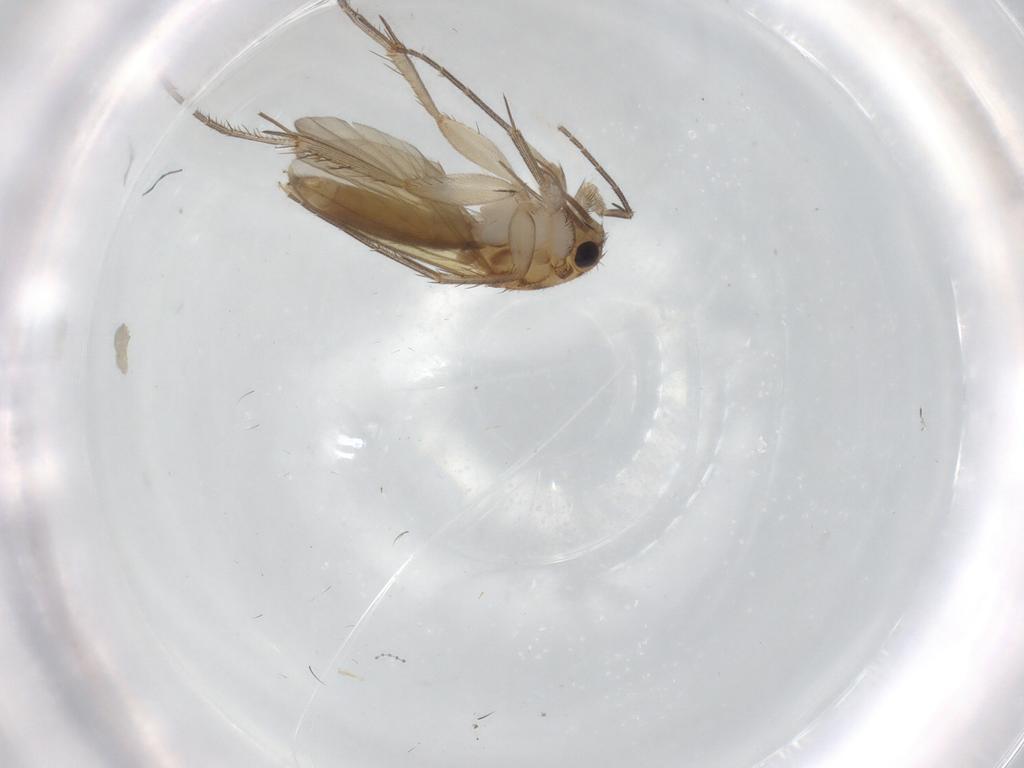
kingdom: Animalia
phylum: Arthropoda
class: Insecta
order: Diptera
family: Mycetophilidae
